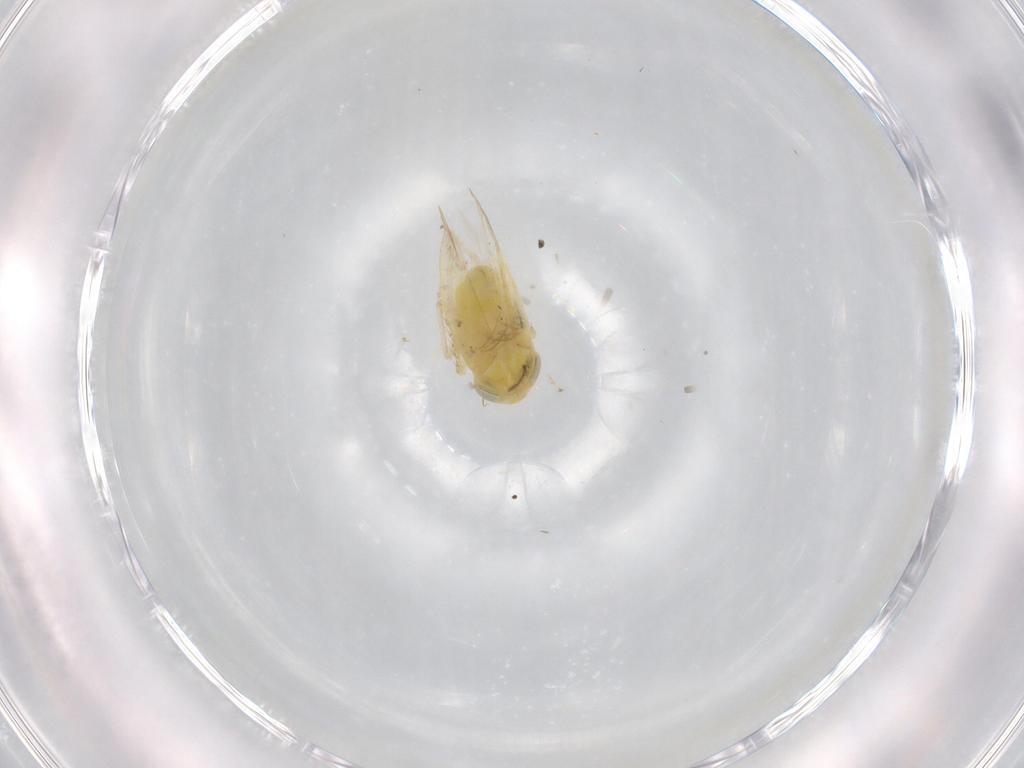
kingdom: Animalia
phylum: Arthropoda
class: Insecta
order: Hemiptera
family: Cicadellidae
